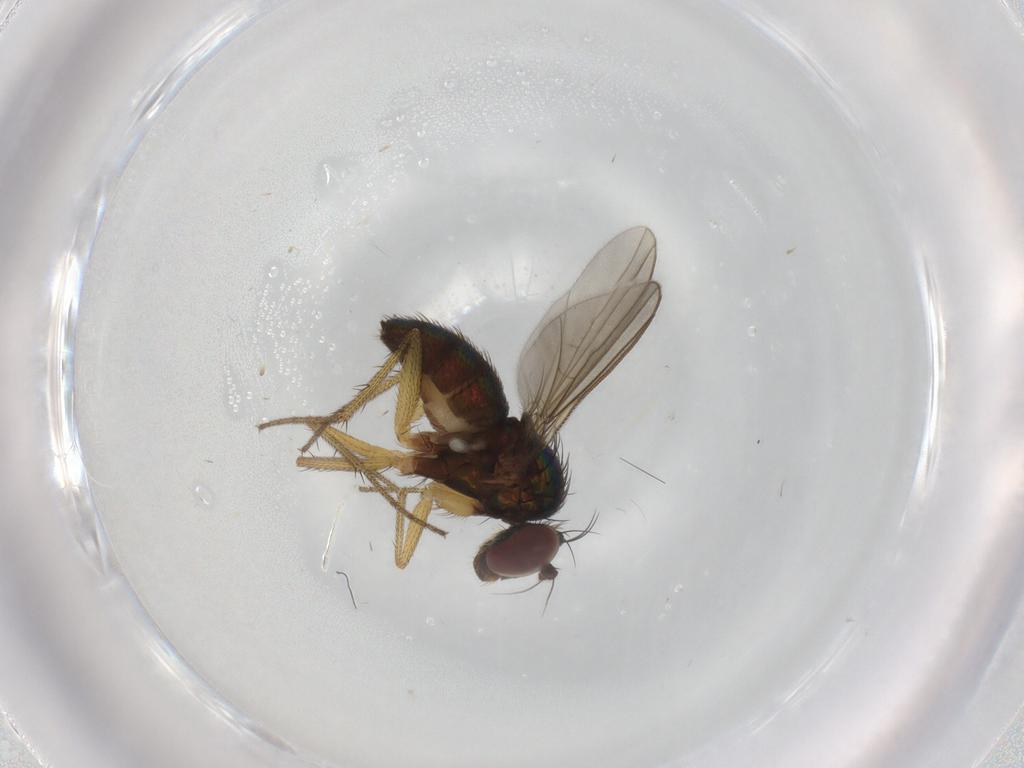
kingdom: Animalia
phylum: Arthropoda
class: Insecta
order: Diptera
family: Dolichopodidae
